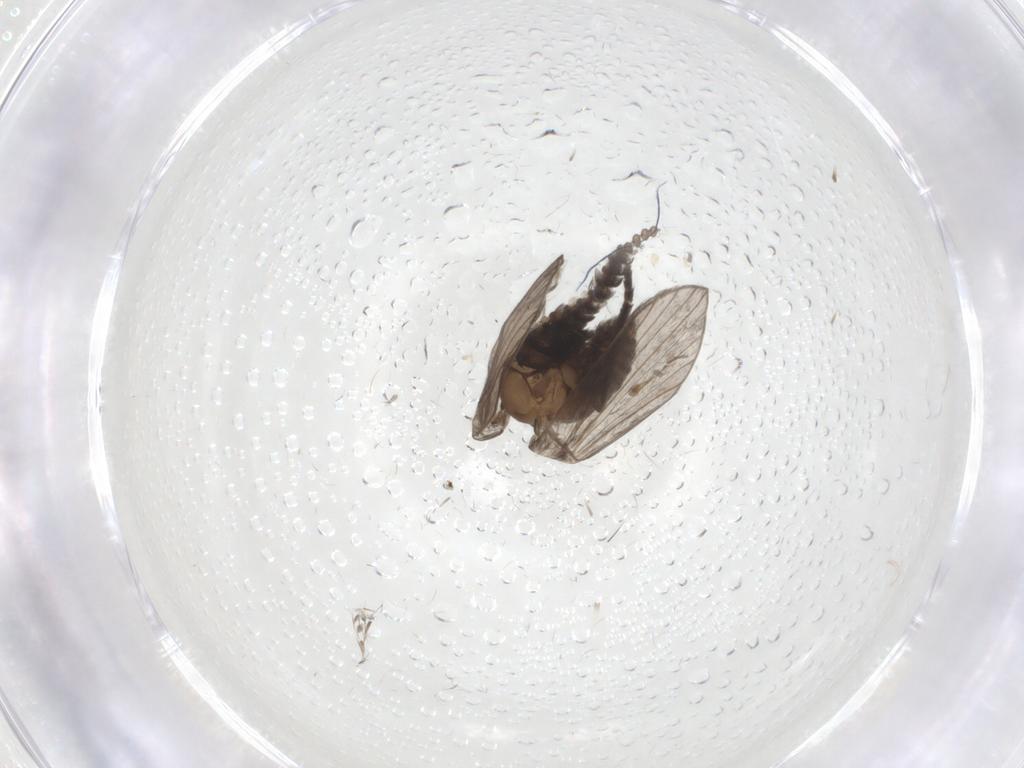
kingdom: Animalia
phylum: Arthropoda
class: Insecta
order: Diptera
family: Psychodidae
